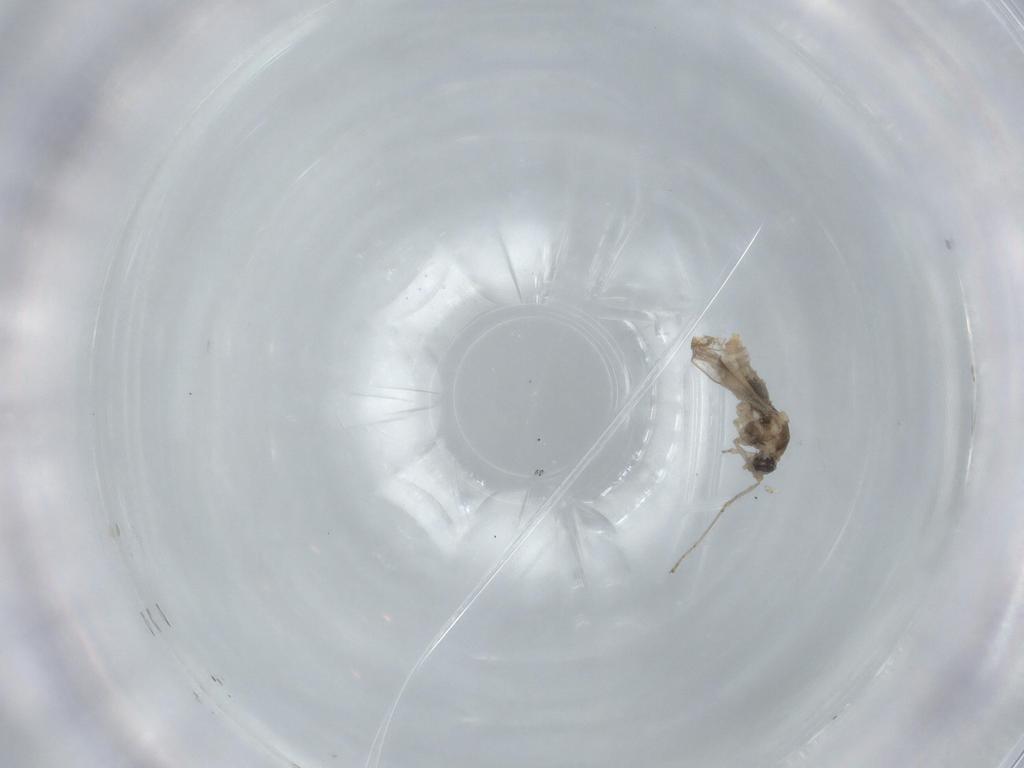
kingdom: Animalia
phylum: Arthropoda
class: Insecta
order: Diptera
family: Cecidomyiidae
